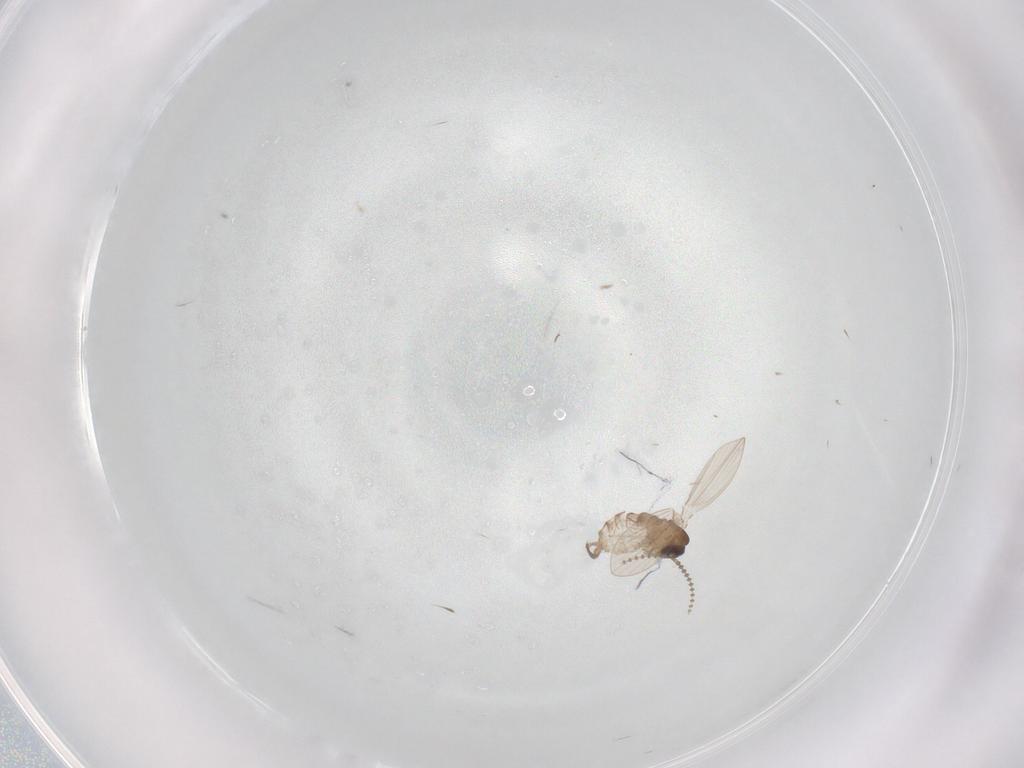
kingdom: Animalia
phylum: Arthropoda
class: Insecta
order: Diptera
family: Psychodidae
